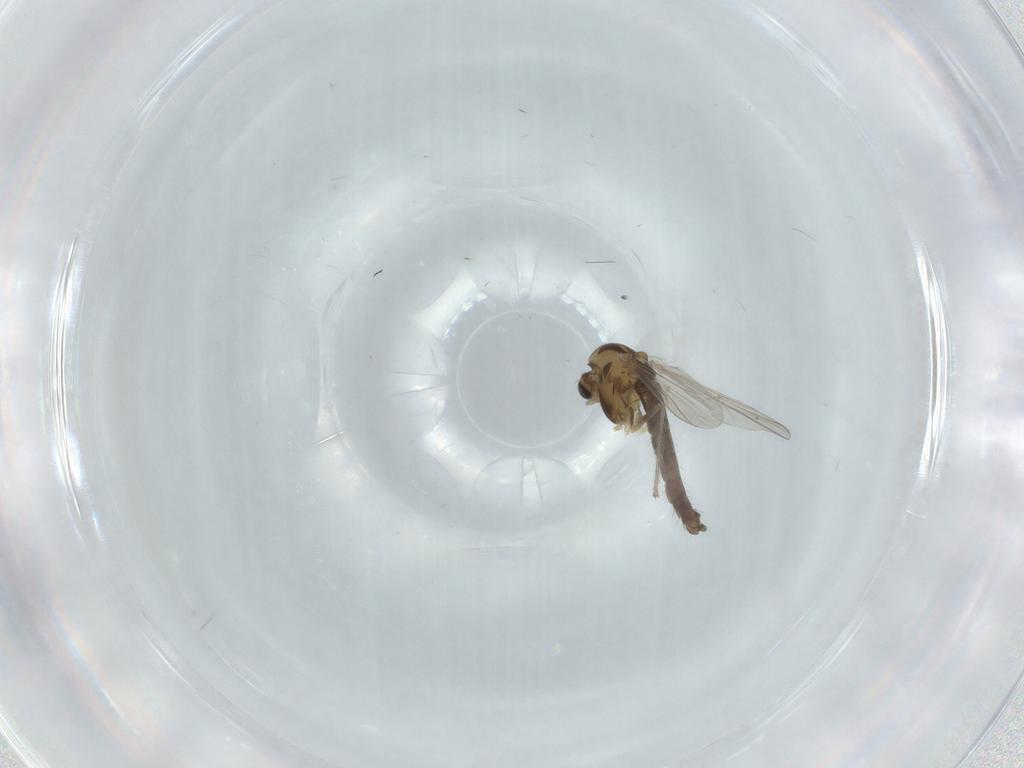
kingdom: Animalia
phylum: Arthropoda
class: Insecta
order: Diptera
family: Chironomidae
